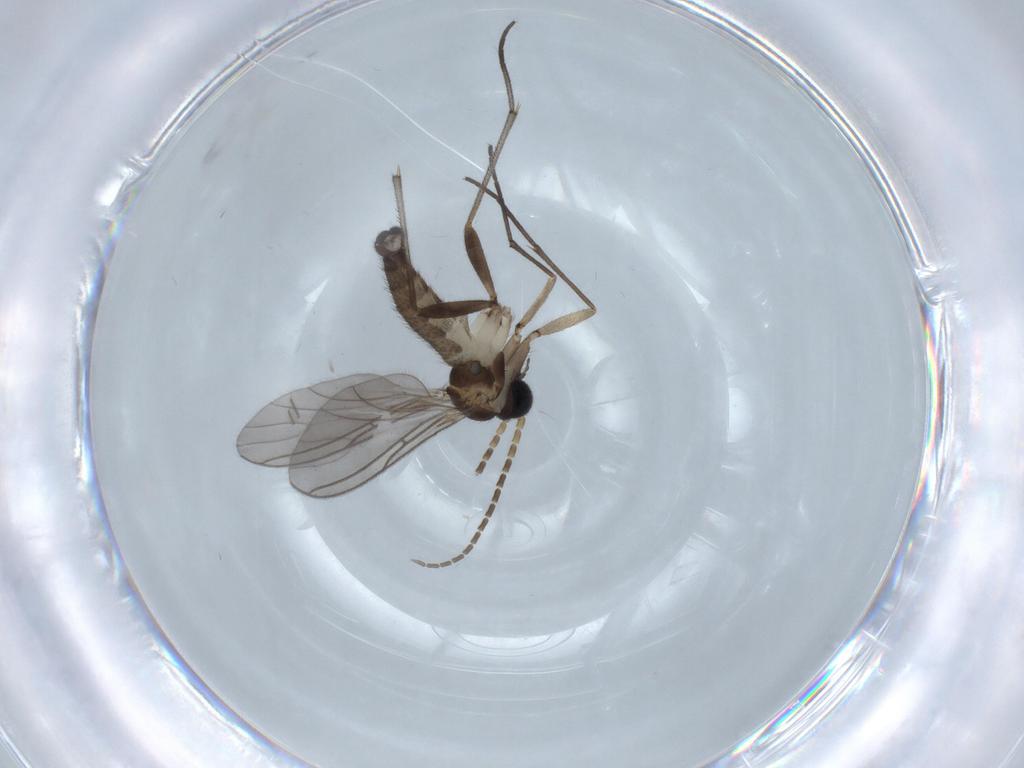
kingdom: Animalia
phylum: Arthropoda
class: Insecta
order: Diptera
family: Sciaridae
